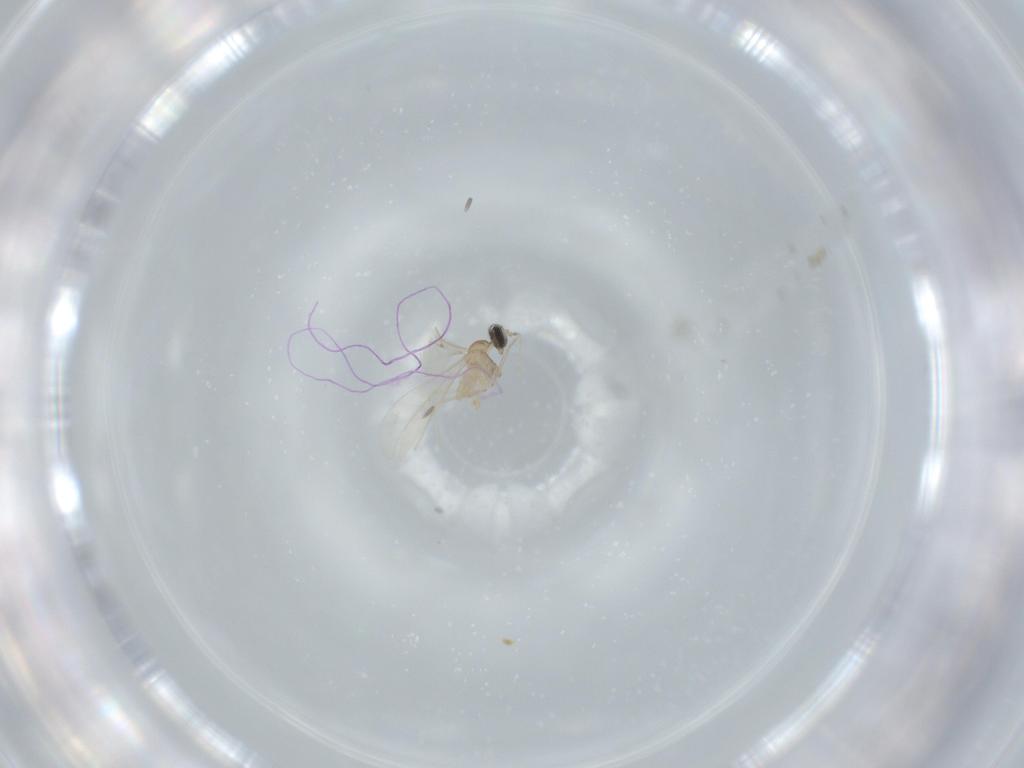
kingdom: Animalia
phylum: Arthropoda
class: Insecta
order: Diptera
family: Cecidomyiidae
